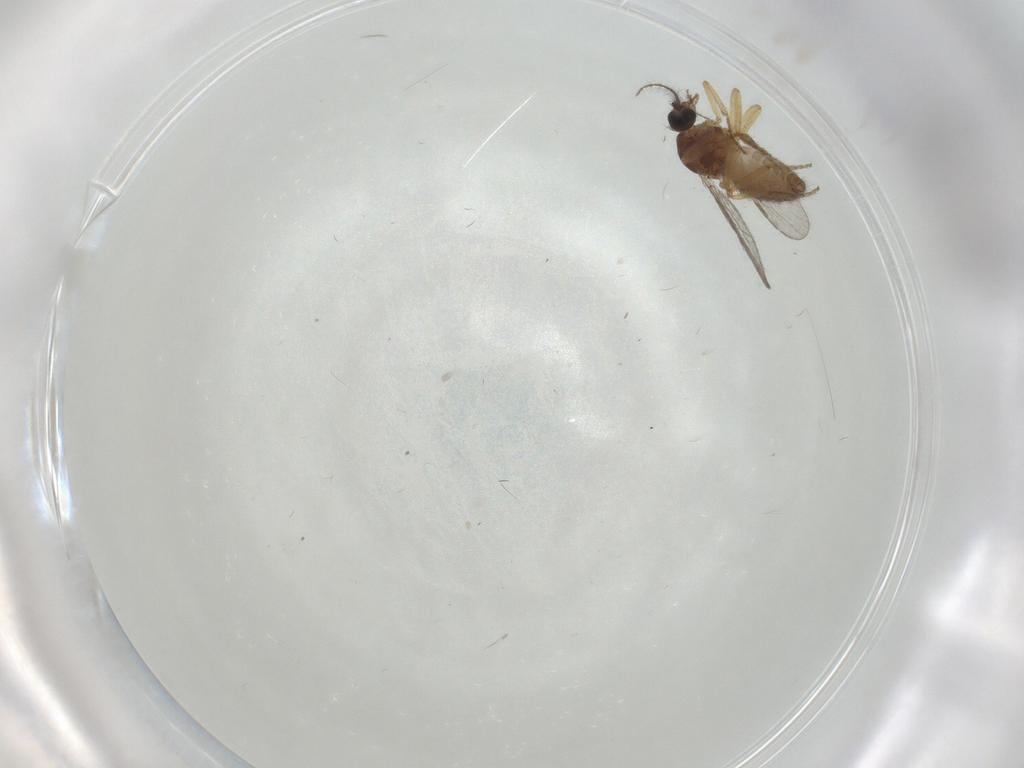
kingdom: Animalia
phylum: Arthropoda
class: Insecta
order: Diptera
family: Ceratopogonidae
